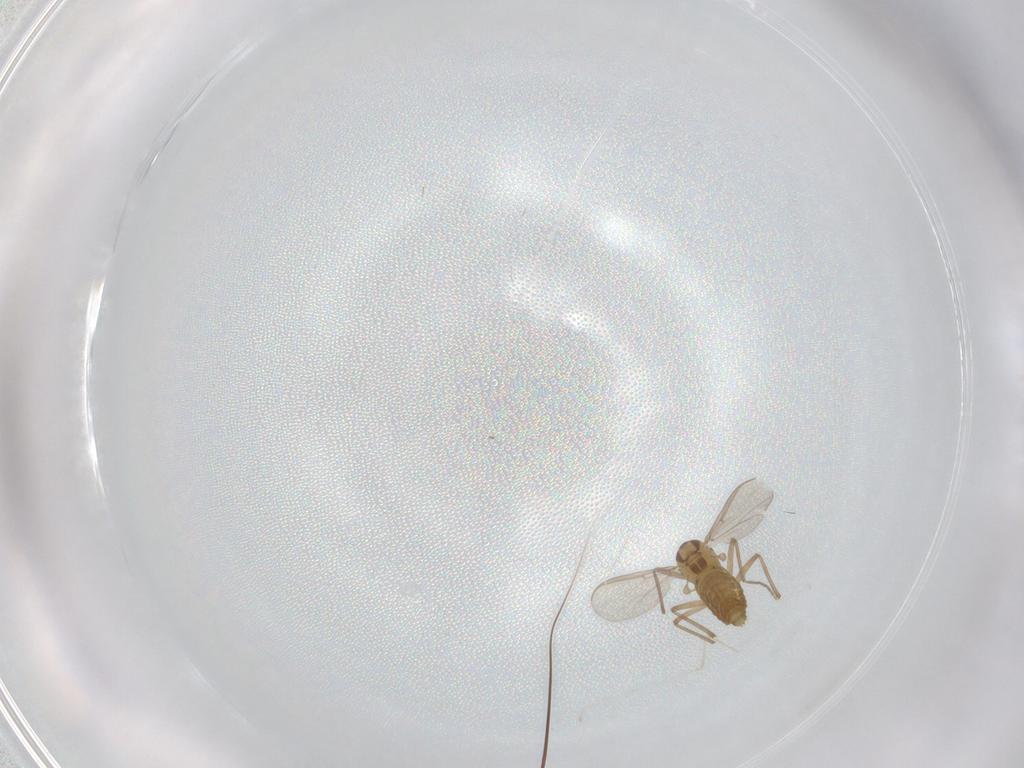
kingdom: Animalia
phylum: Arthropoda
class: Insecta
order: Diptera
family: Chironomidae
